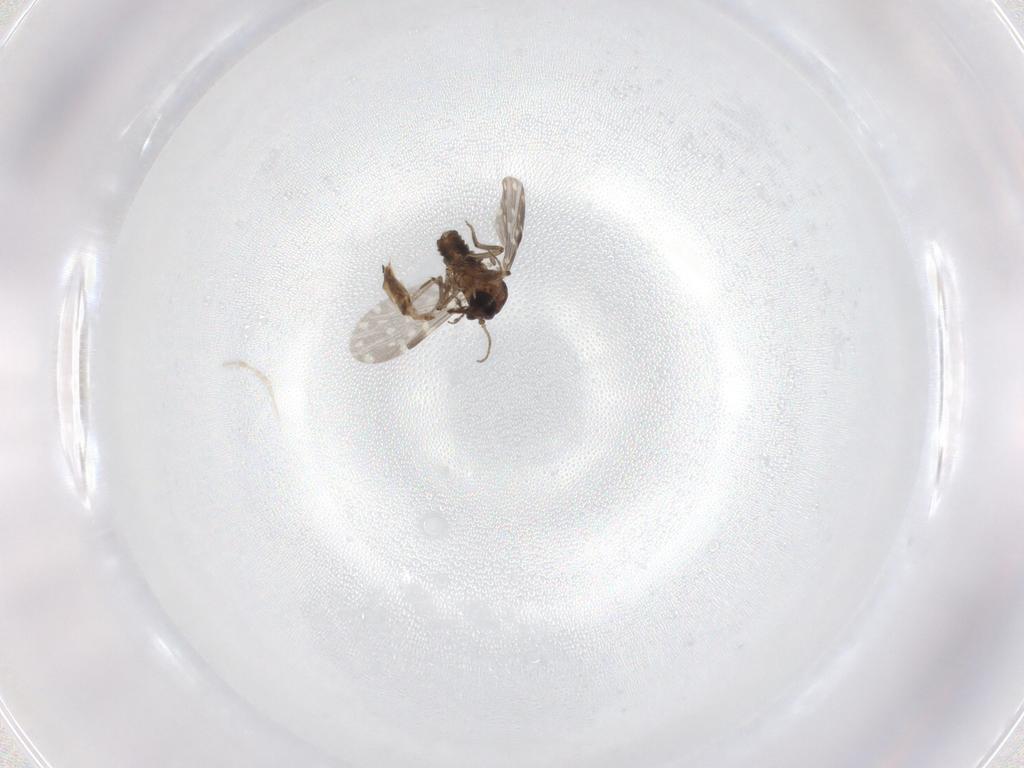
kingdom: Animalia
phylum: Arthropoda
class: Insecta
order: Diptera
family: Ceratopogonidae
